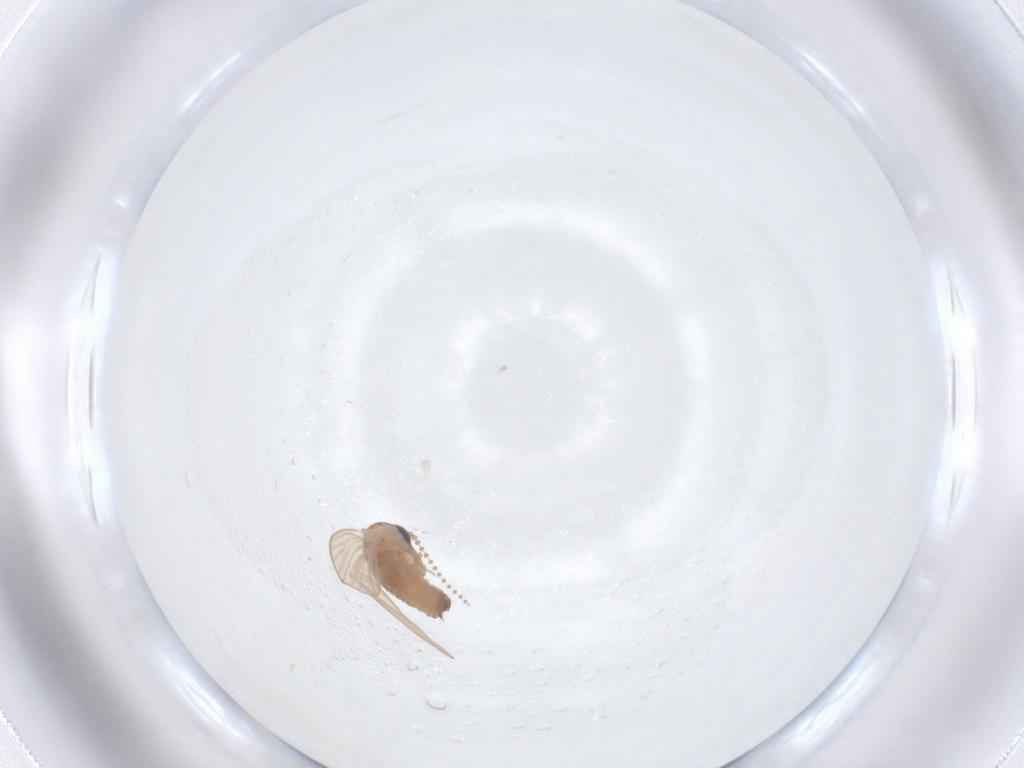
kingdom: Animalia
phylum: Arthropoda
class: Insecta
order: Diptera
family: Psychodidae
